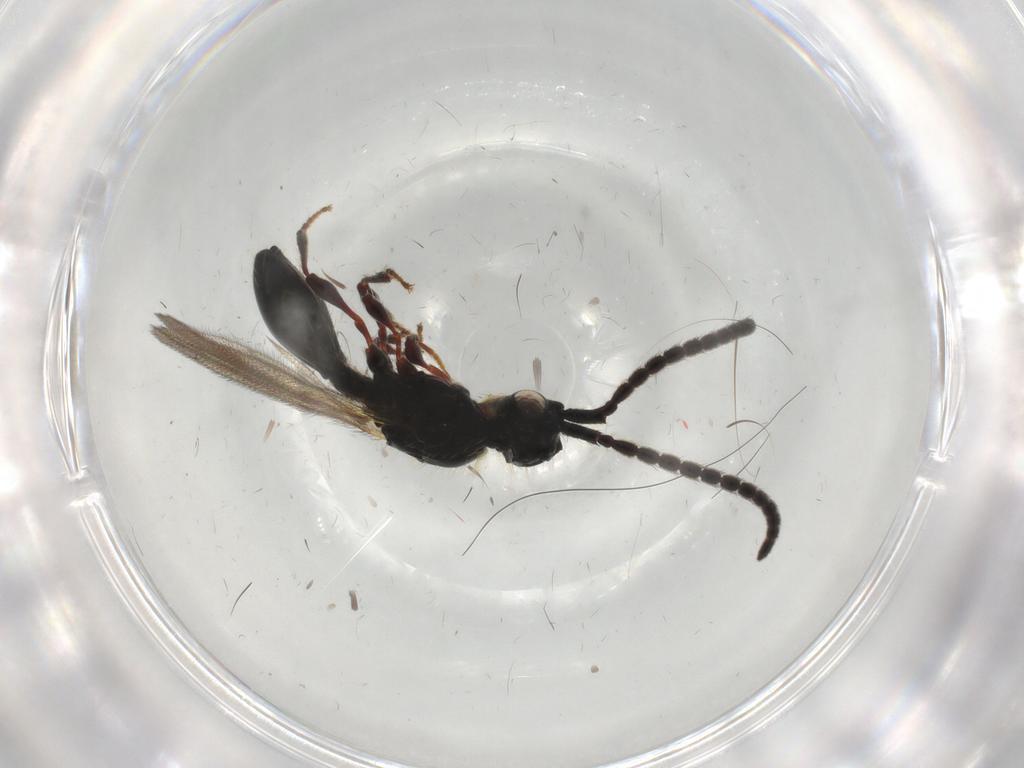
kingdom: Animalia
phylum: Arthropoda
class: Insecta
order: Hymenoptera
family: Diapriidae
